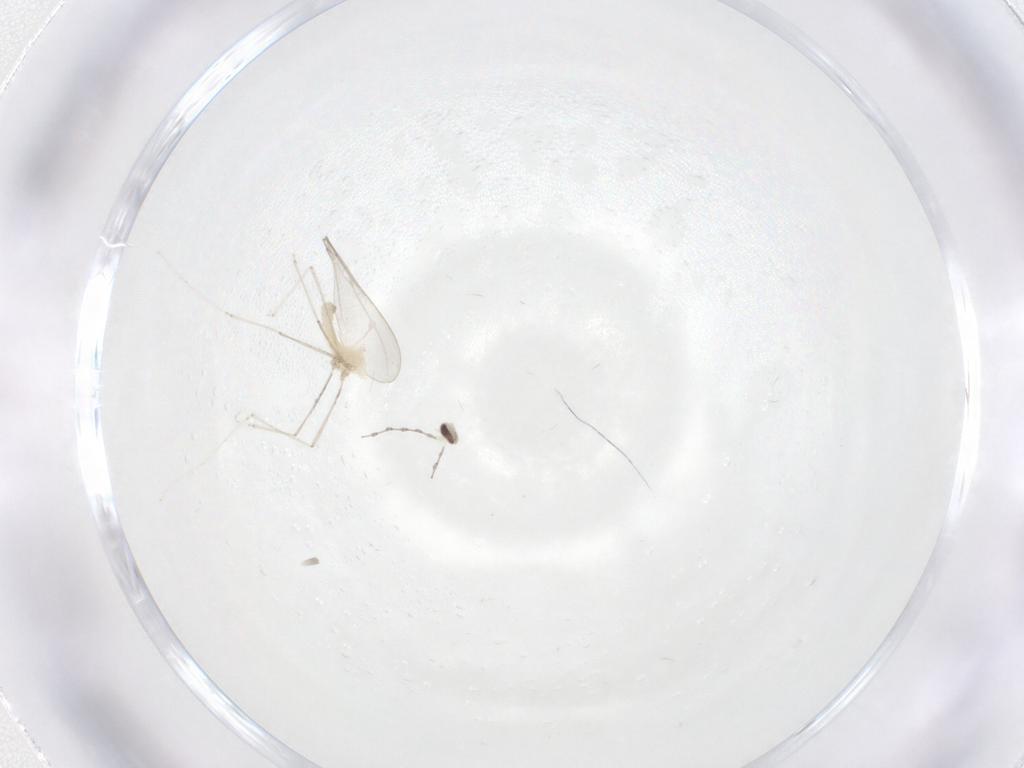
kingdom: Animalia
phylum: Arthropoda
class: Insecta
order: Diptera
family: Cecidomyiidae
